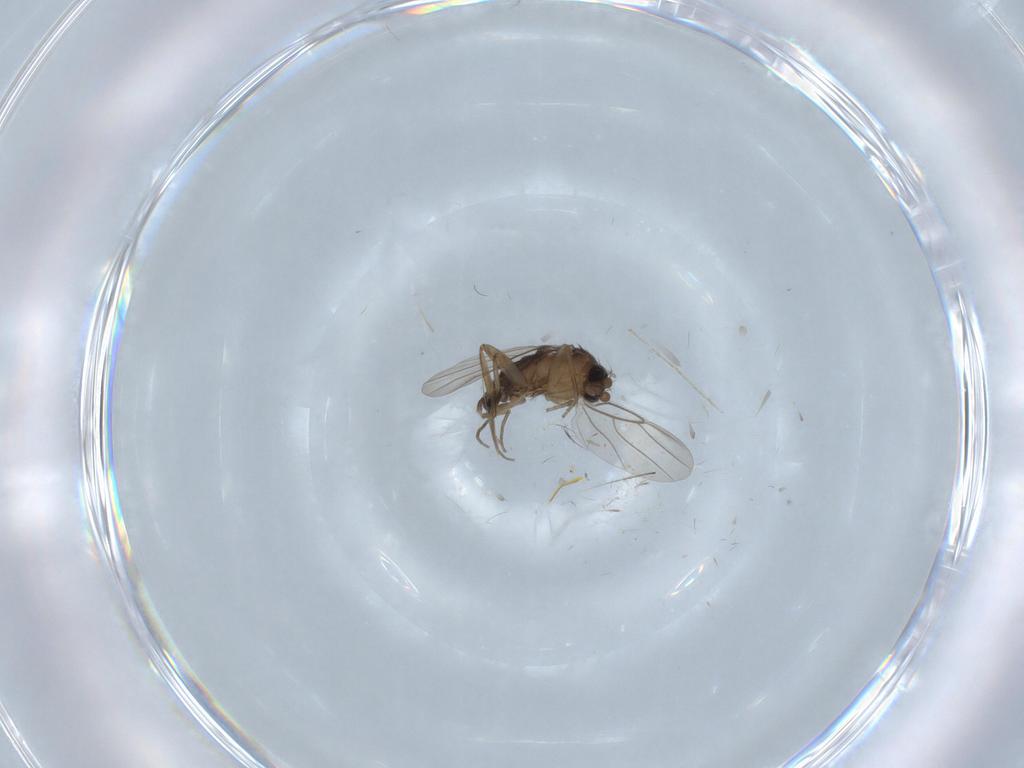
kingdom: Animalia
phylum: Arthropoda
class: Insecta
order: Diptera
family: Phoridae
